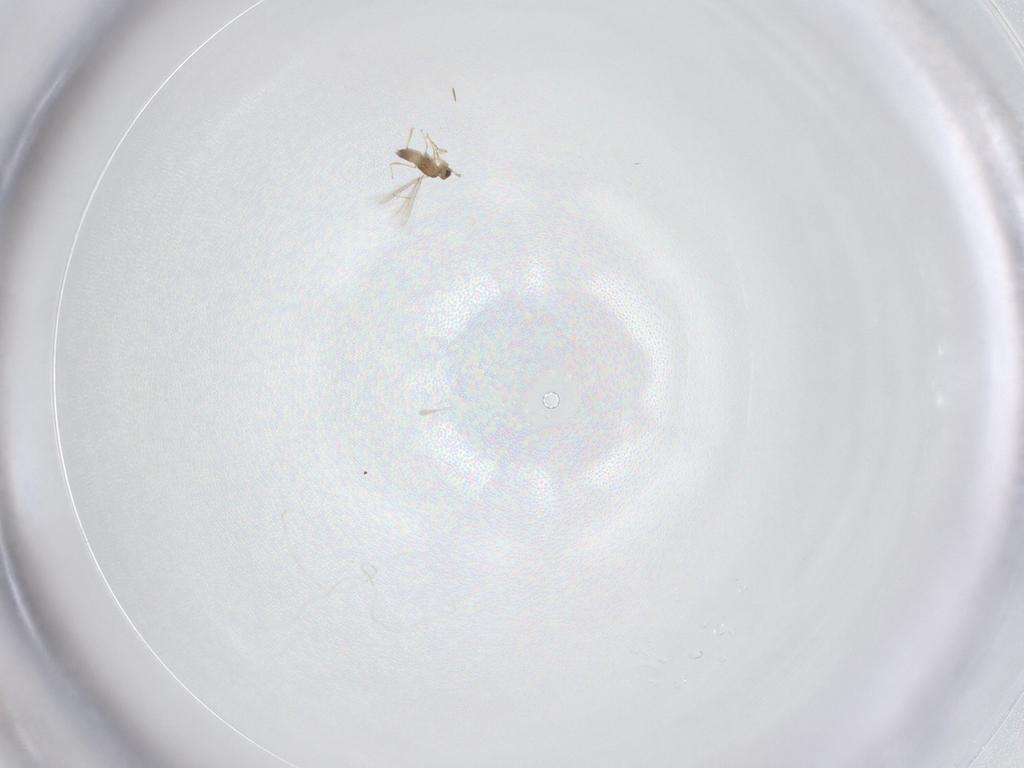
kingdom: Animalia
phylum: Arthropoda
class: Insecta
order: Hymenoptera
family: Mymaridae
